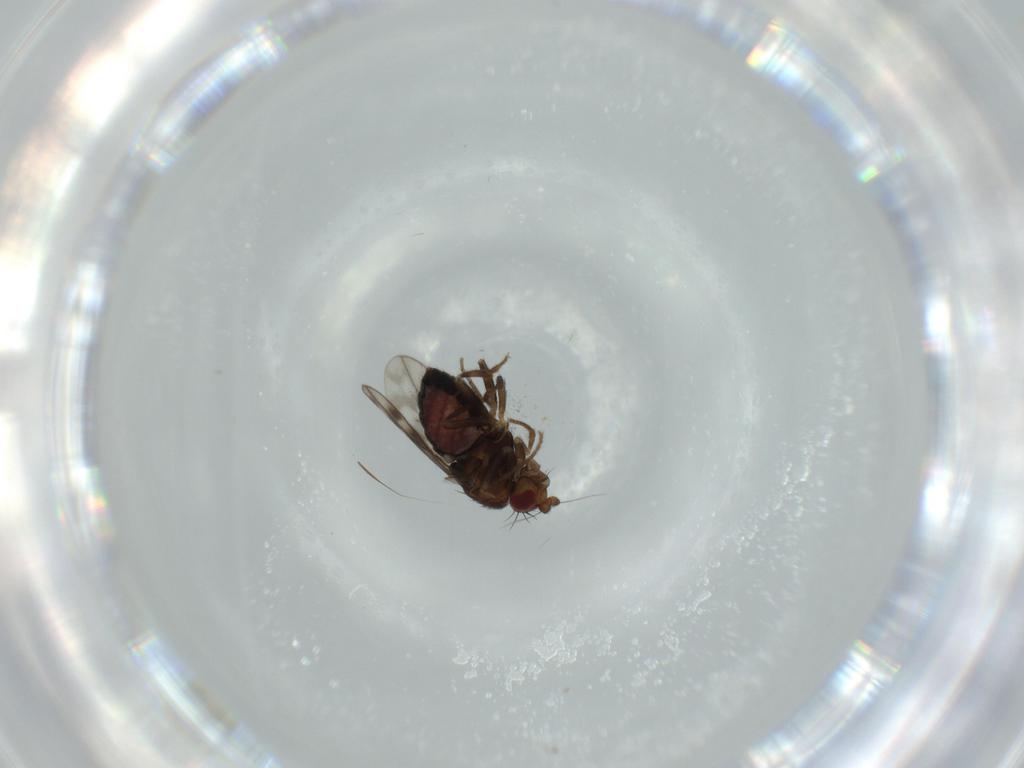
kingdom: Animalia
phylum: Arthropoda
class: Insecta
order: Diptera
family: Sphaeroceridae
